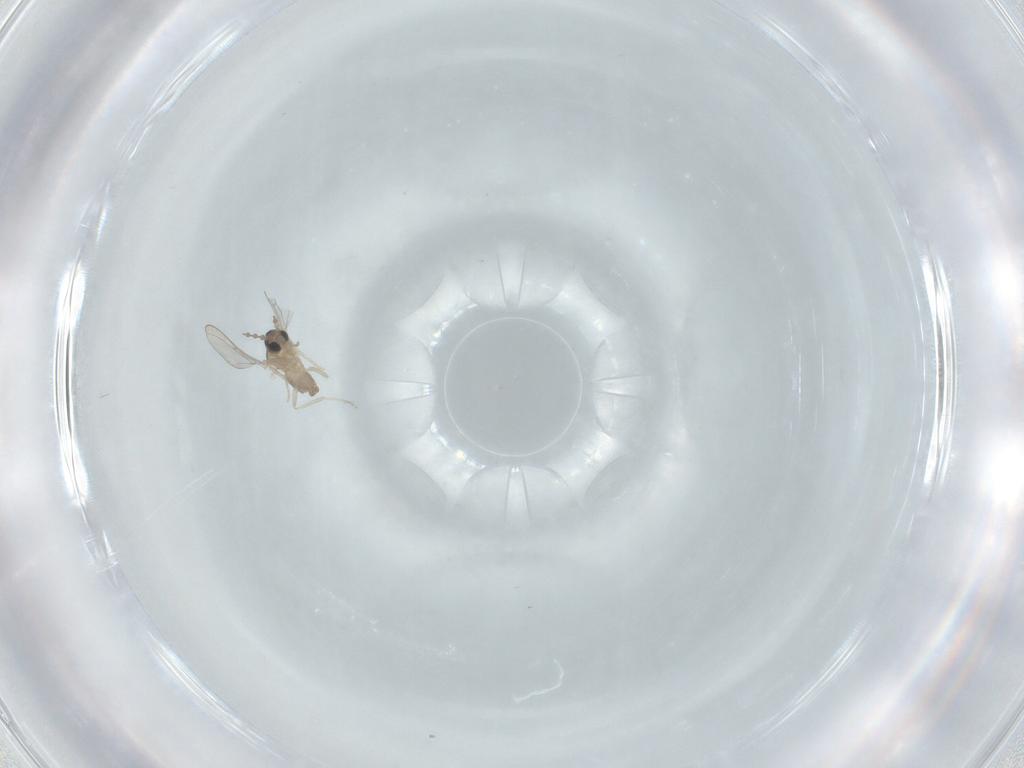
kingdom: Animalia
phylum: Arthropoda
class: Insecta
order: Diptera
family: Cecidomyiidae
